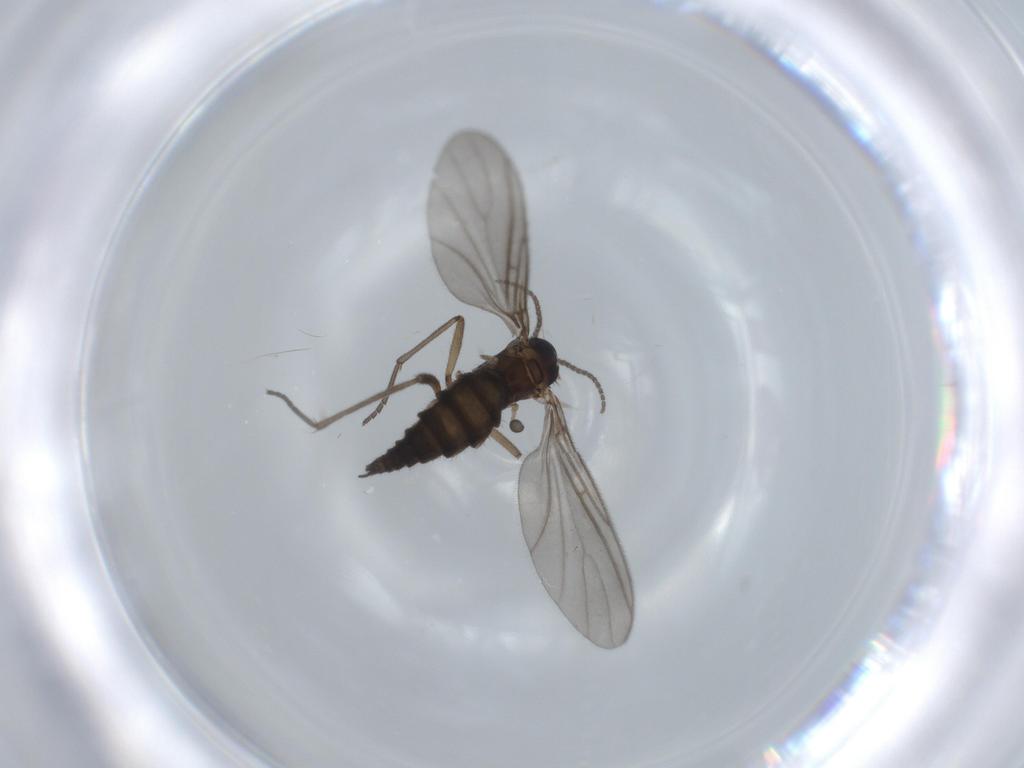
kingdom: Animalia
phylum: Arthropoda
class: Insecta
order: Diptera
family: Sciaridae
